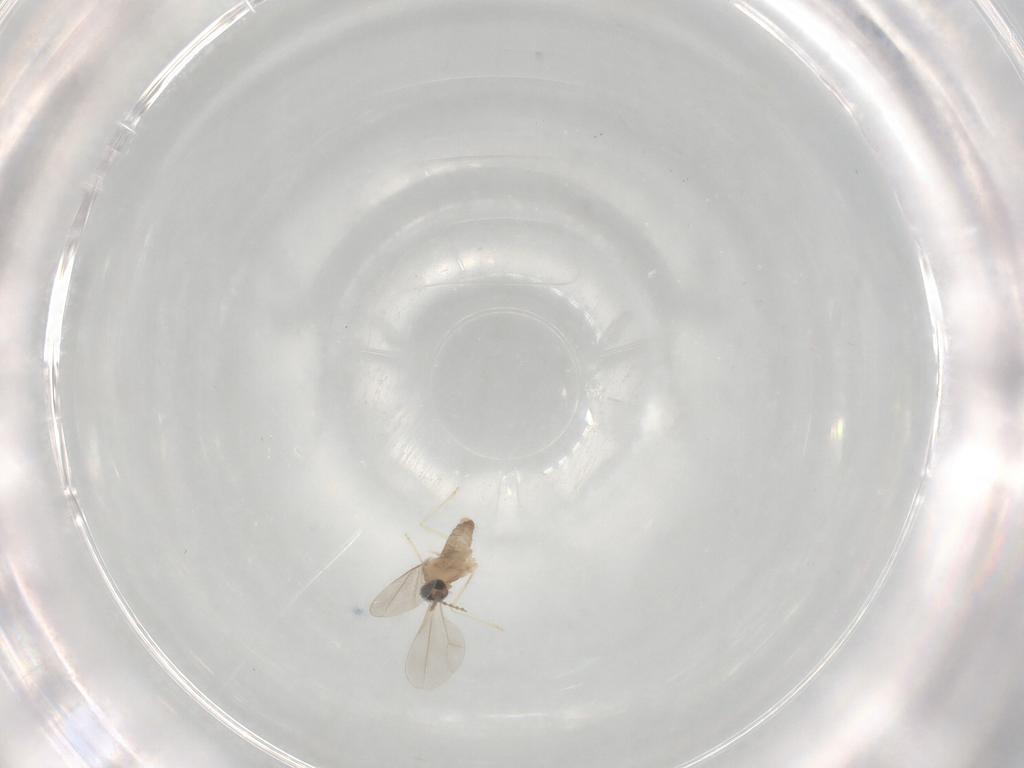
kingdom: Animalia
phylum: Arthropoda
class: Insecta
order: Diptera
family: Cecidomyiidae
